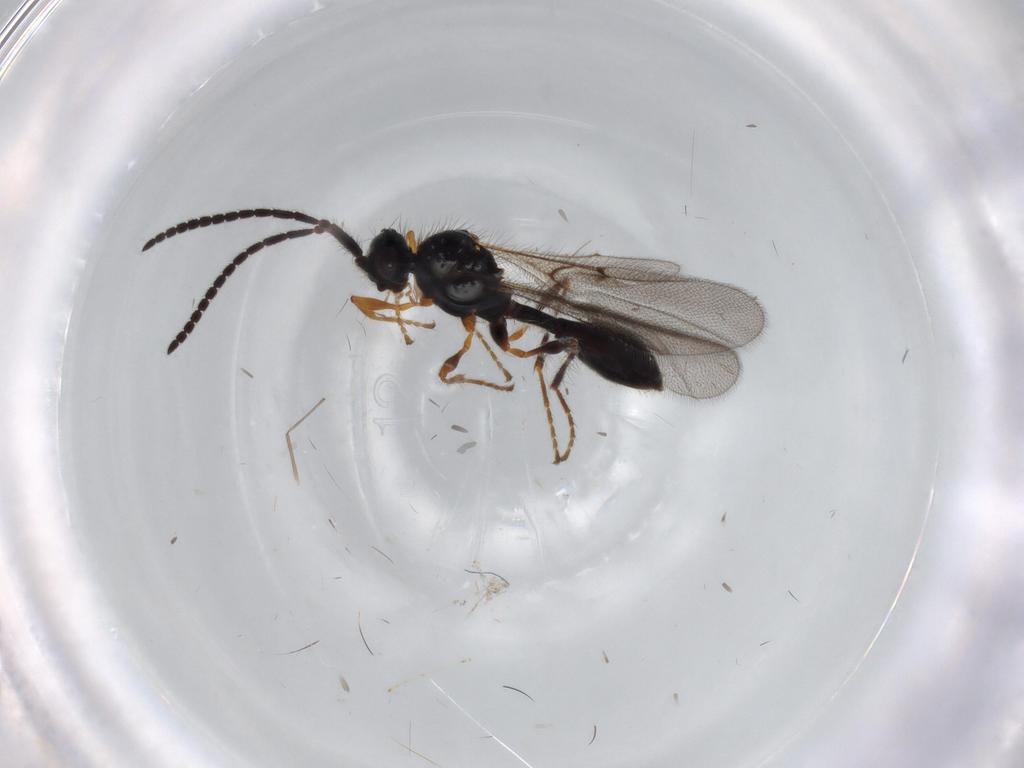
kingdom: Animalia
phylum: Arthropoda
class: Insecta
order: Hymenoptera
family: Diapriidae
